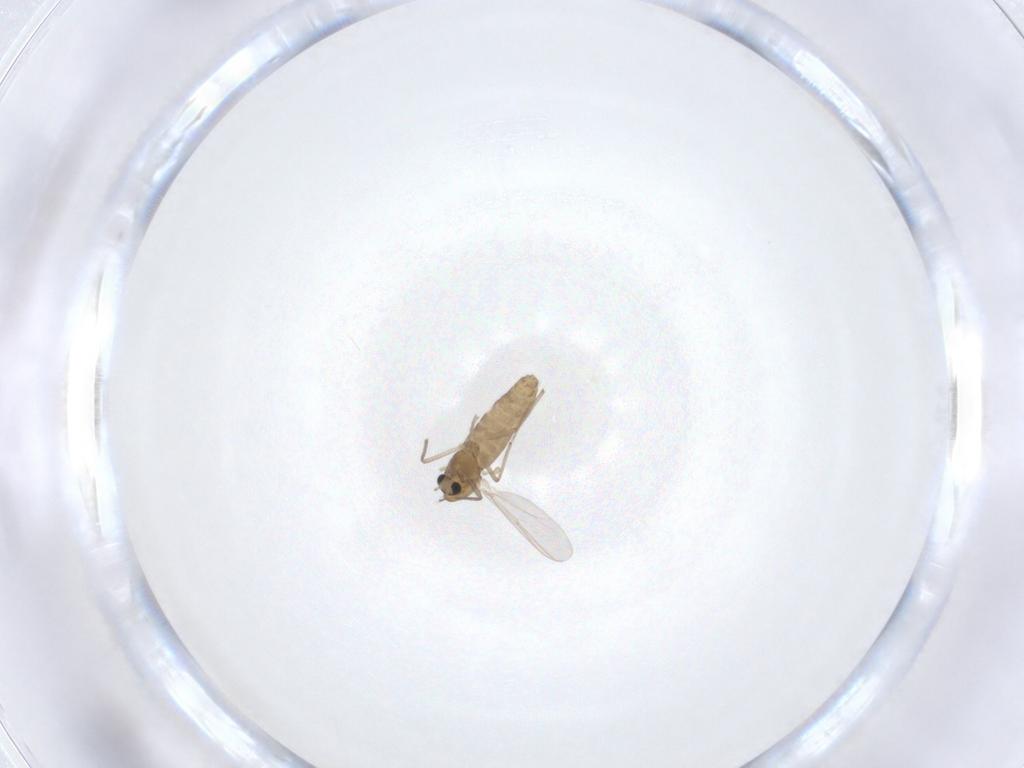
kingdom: Animalia
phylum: Arthropoda
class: Insecta
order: Diptera
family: Chironomidae
